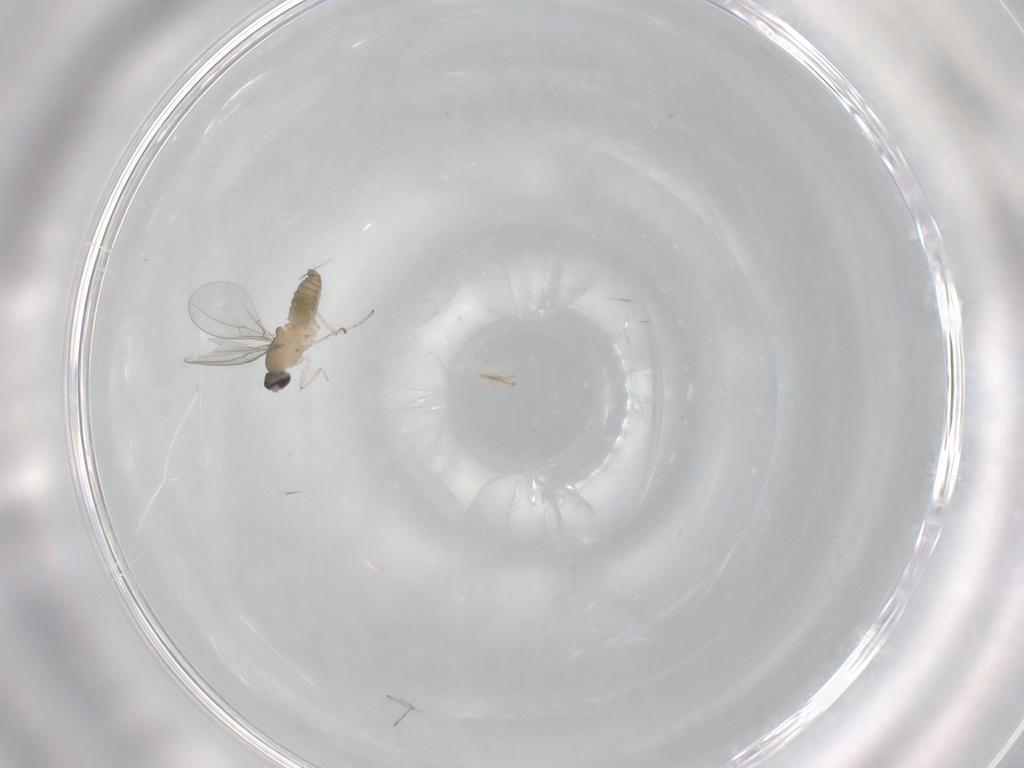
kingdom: Animalia
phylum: Arthropoda
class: Insecta
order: Diptera
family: Cecidomyiidae
